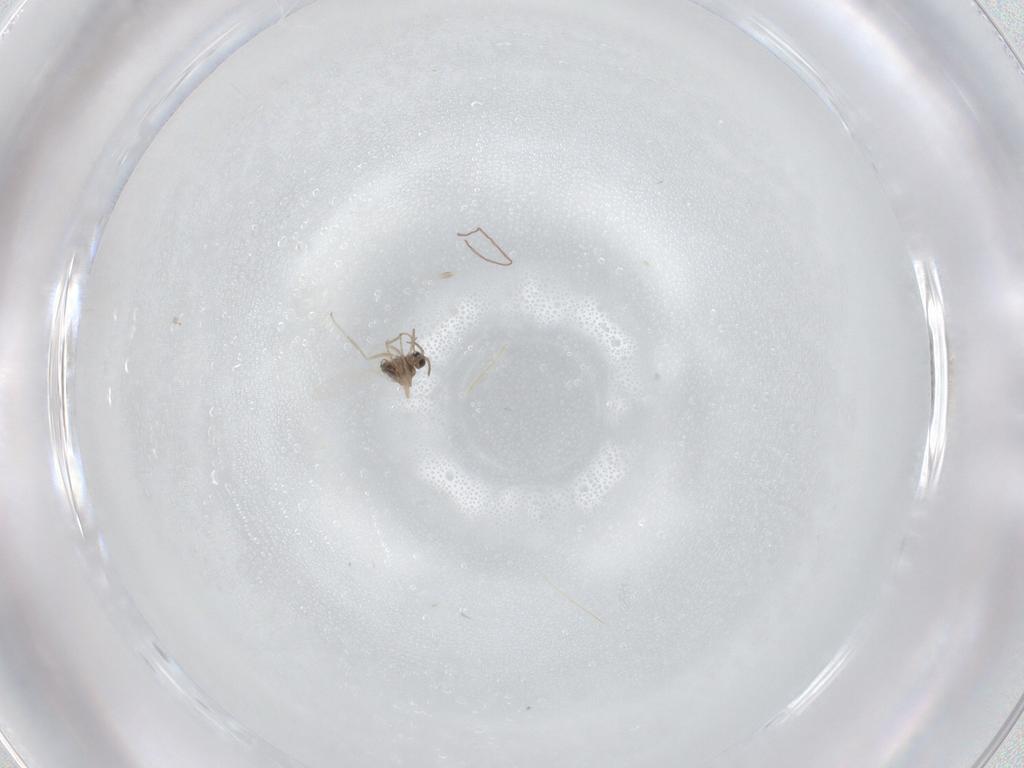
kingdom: Animalia
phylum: Arthropoda
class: Insecta
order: Diptera
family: Cecidomyiidae
